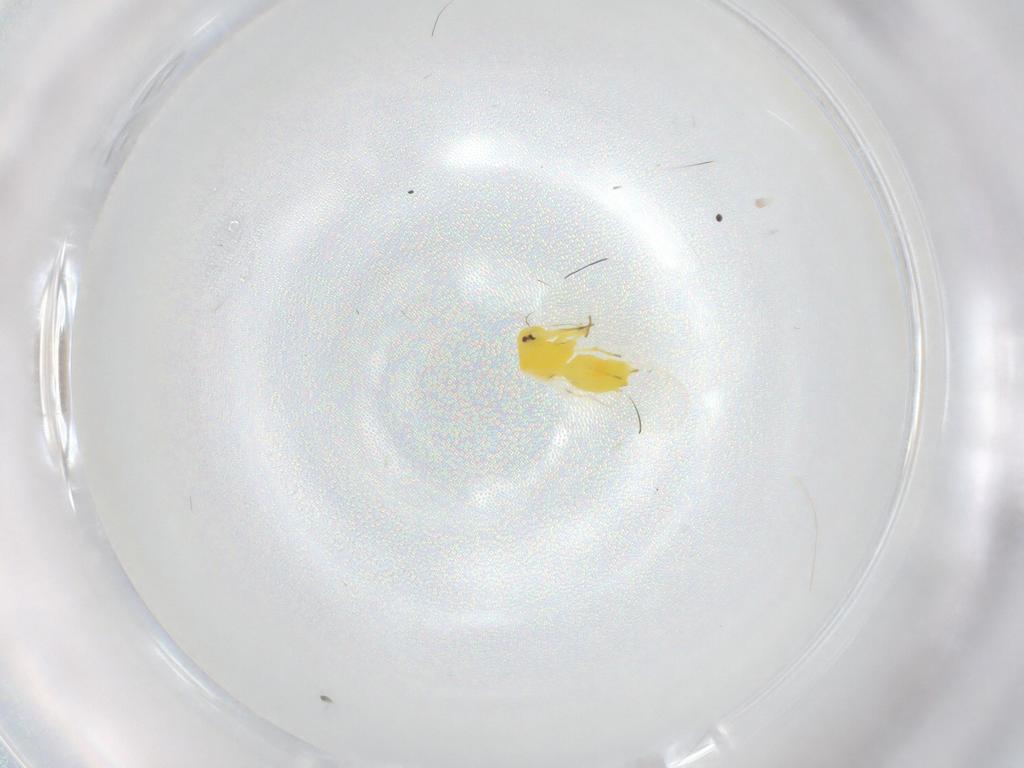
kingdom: Animalia
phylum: Arthropoda
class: Insecta
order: Hemiptera
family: Aleyrodidae
